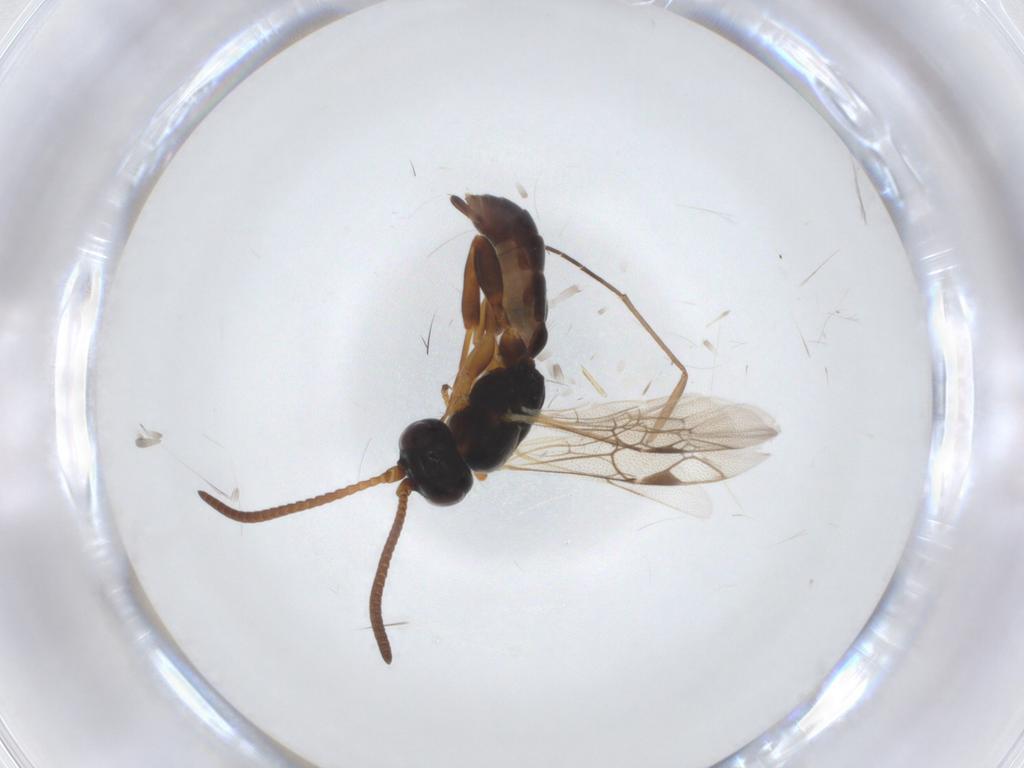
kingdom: Animalia
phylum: Arthropoda
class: Insecta
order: Hymenoptera
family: Ichneumonidae
